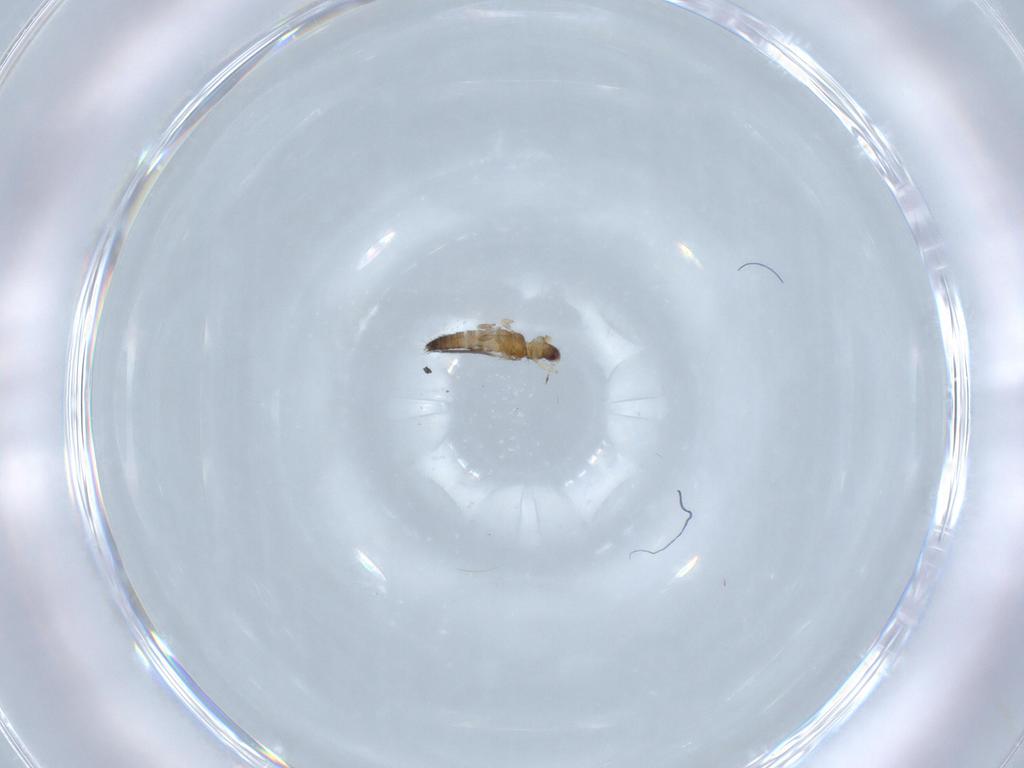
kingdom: Animalia
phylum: Arthropoda
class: Insecta
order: Thysanoptera
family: Thripidae
